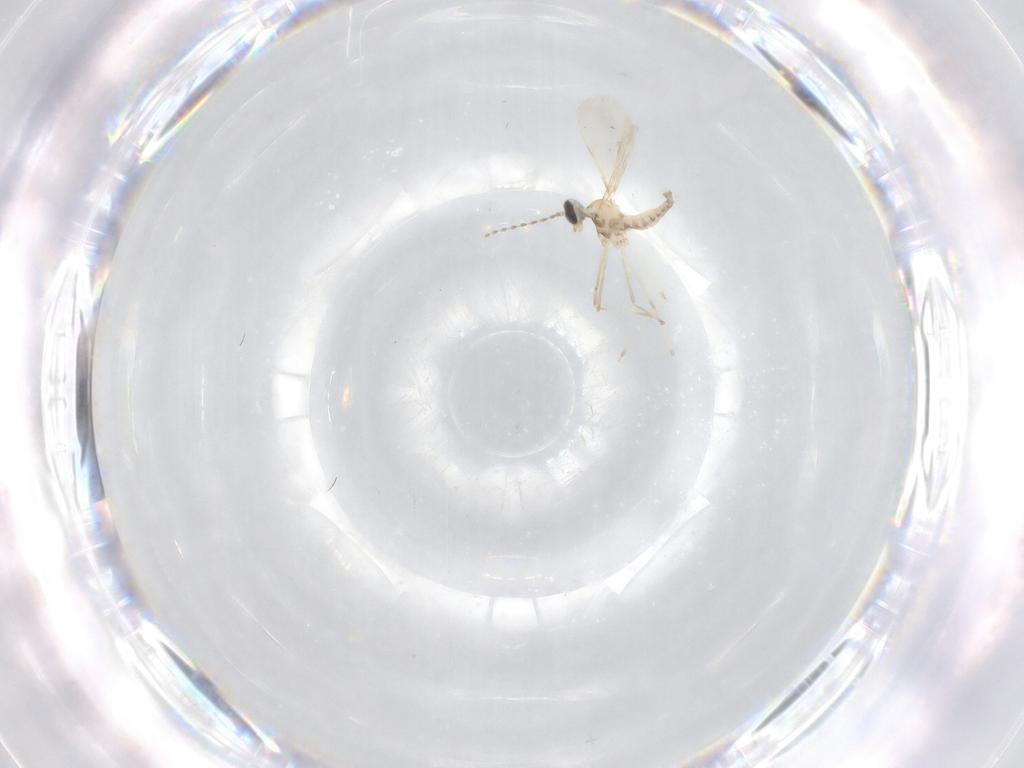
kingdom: Animalia
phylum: Arthropoda
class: Insecta
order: Diptera
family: Cecidomyiidae
